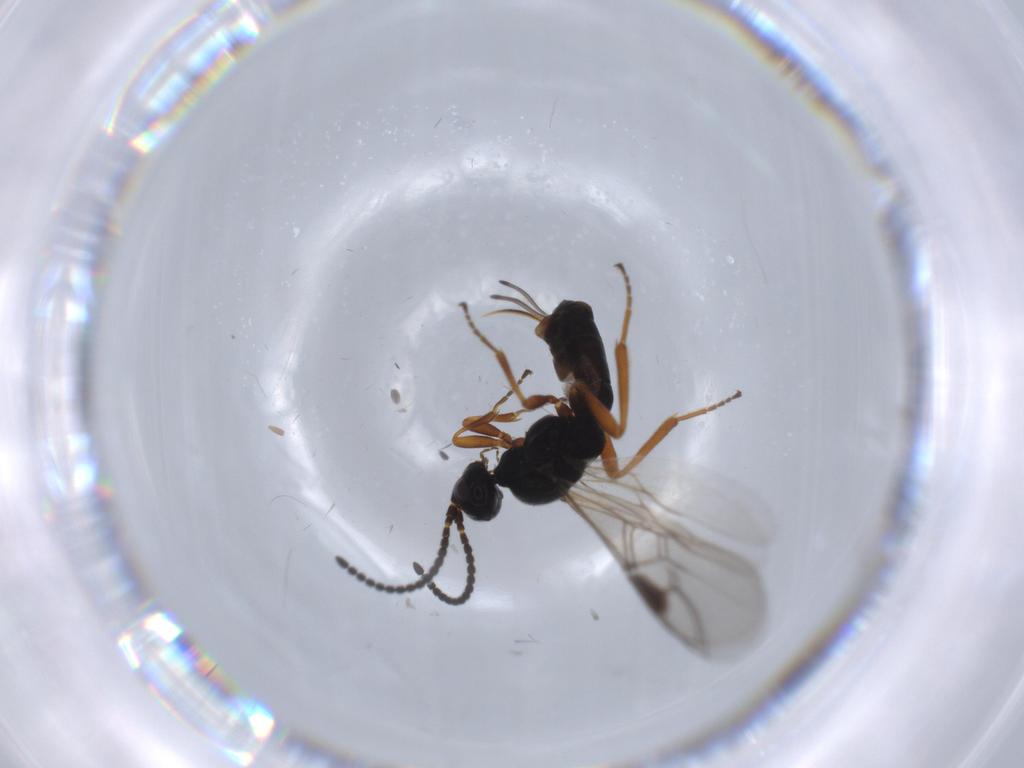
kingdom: Animalia
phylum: Arthropoda
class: Insecta
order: Hymenoptera
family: Braconidae
